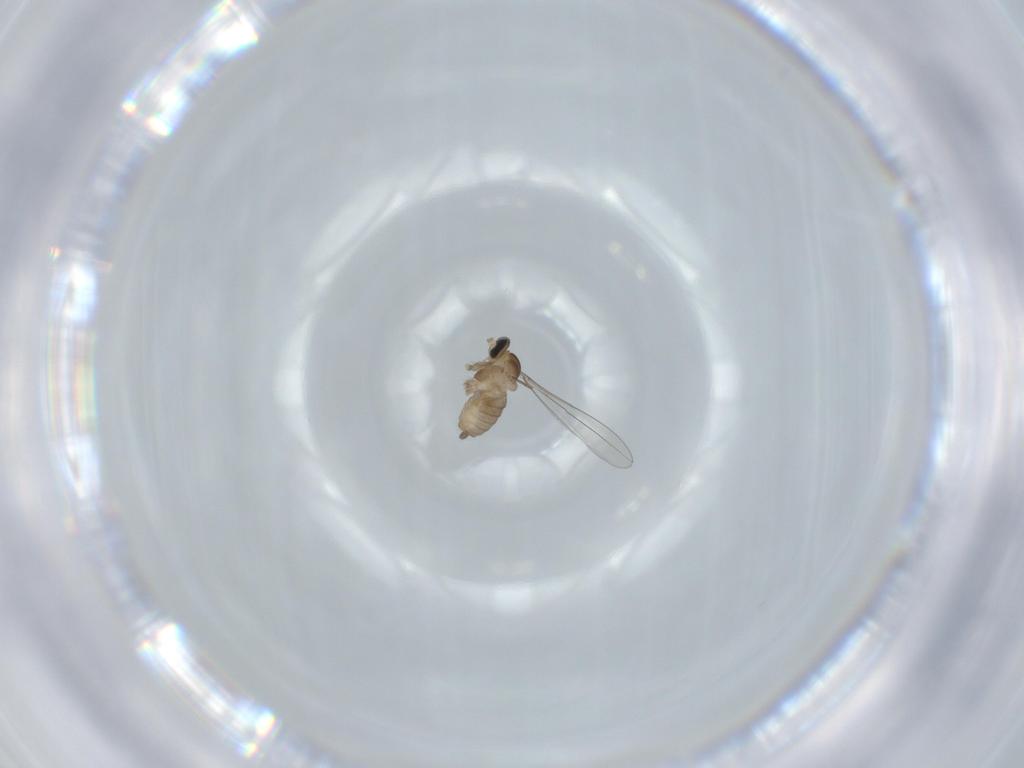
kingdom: Animalia
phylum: Arthropoda
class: Insecta
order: Diptera
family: Cecidomyiidae
